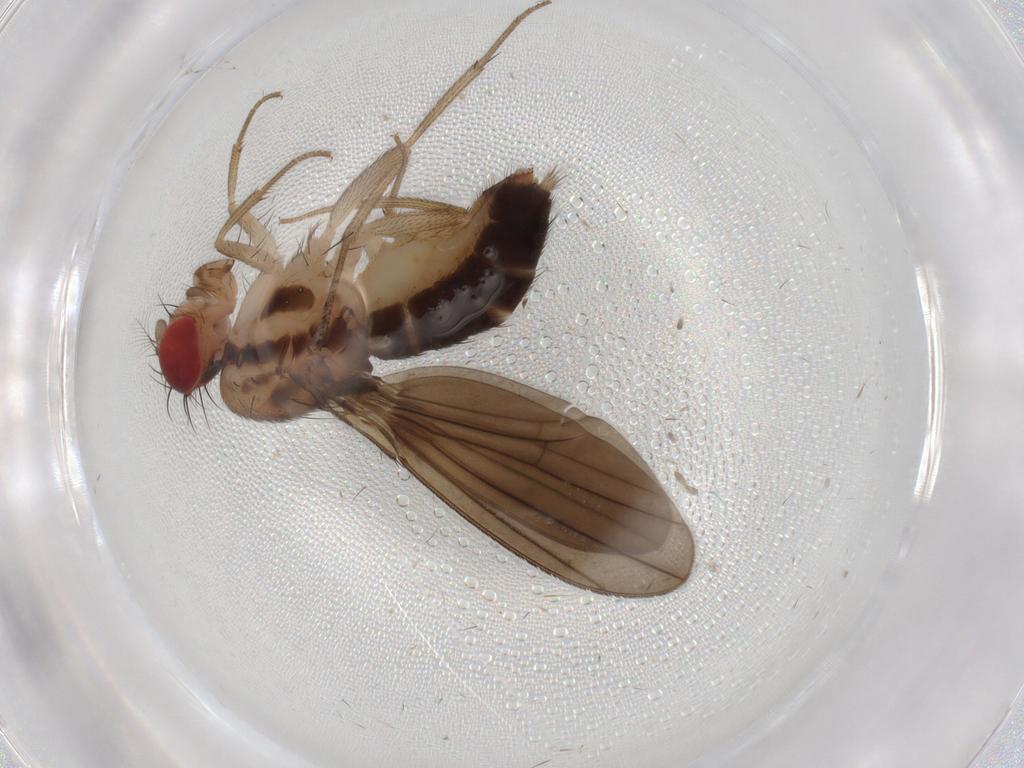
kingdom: Animalia
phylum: Arthropoda
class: Insecta
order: Diptera
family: Drosophilidae
